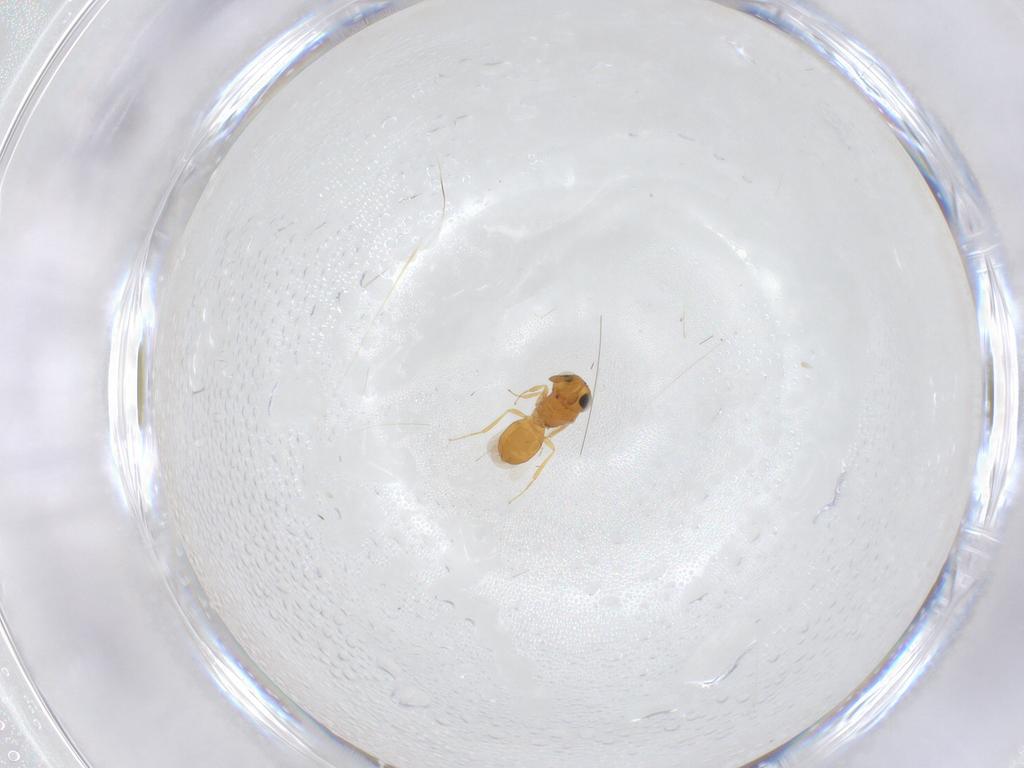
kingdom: Animalia
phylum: Arthropoda
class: Insecta
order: Hymenoptera
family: Scelionidae
